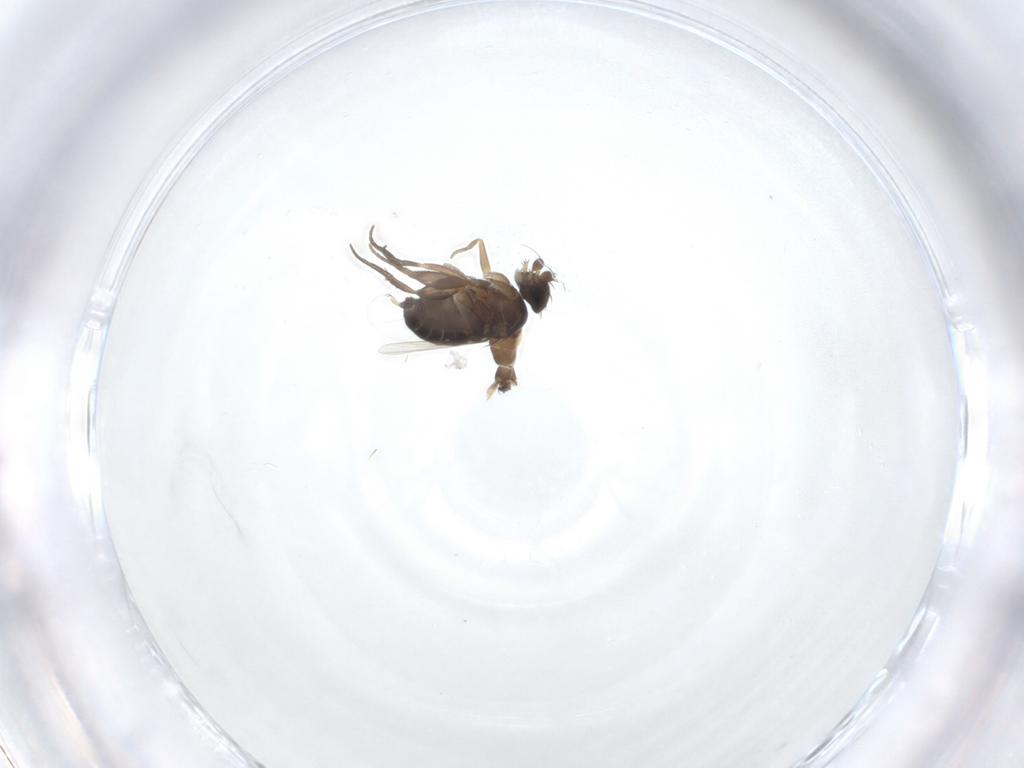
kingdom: Animalia
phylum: Arthropoda
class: Insecta
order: Diptera
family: Phoridae
